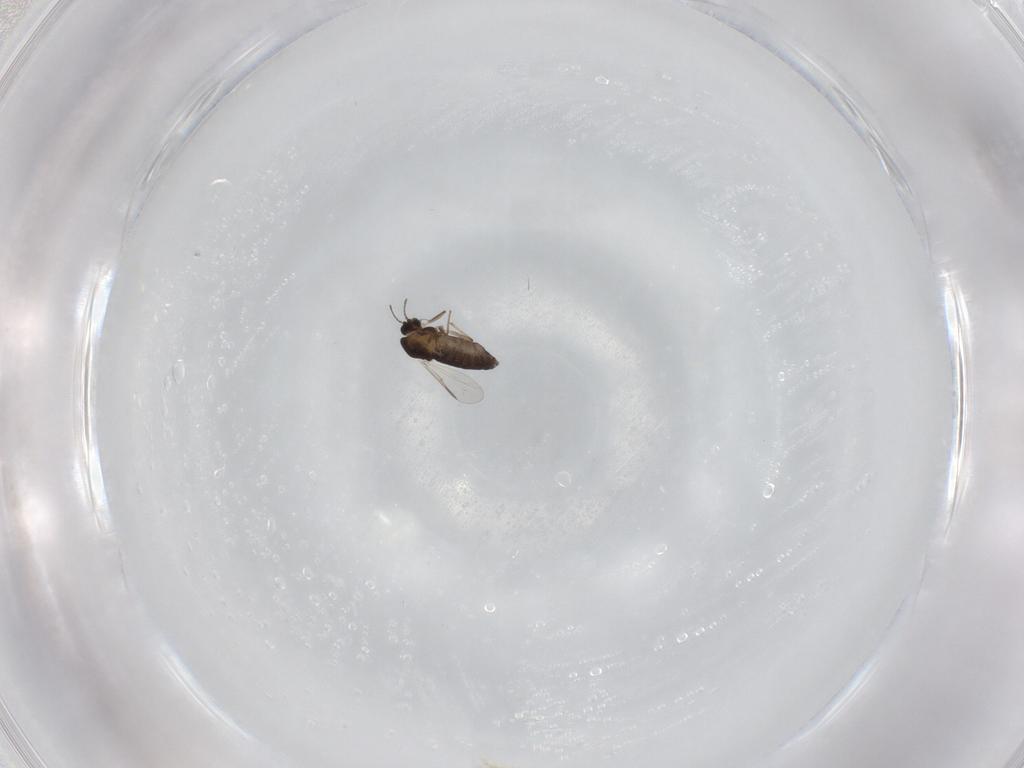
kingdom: Animalia
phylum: Arthropoda
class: Insecta
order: Diptera
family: Chironomidae
